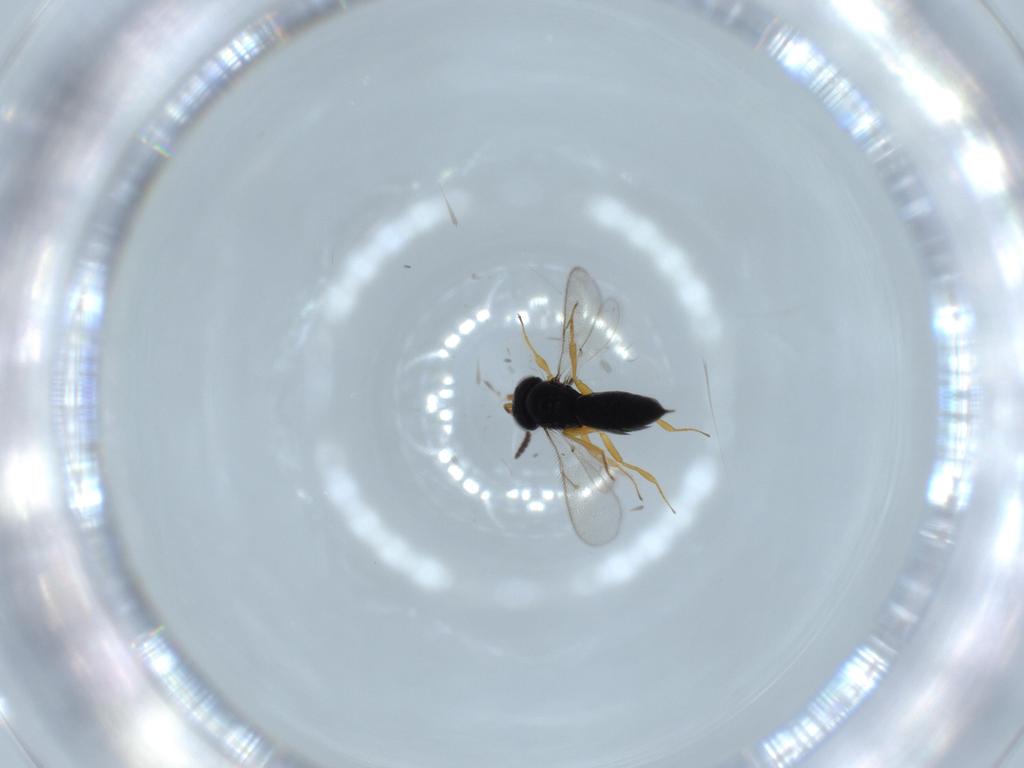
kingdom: Animalia
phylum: Arthropoda
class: Insecta
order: Hymenoptera
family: Scelionidae
